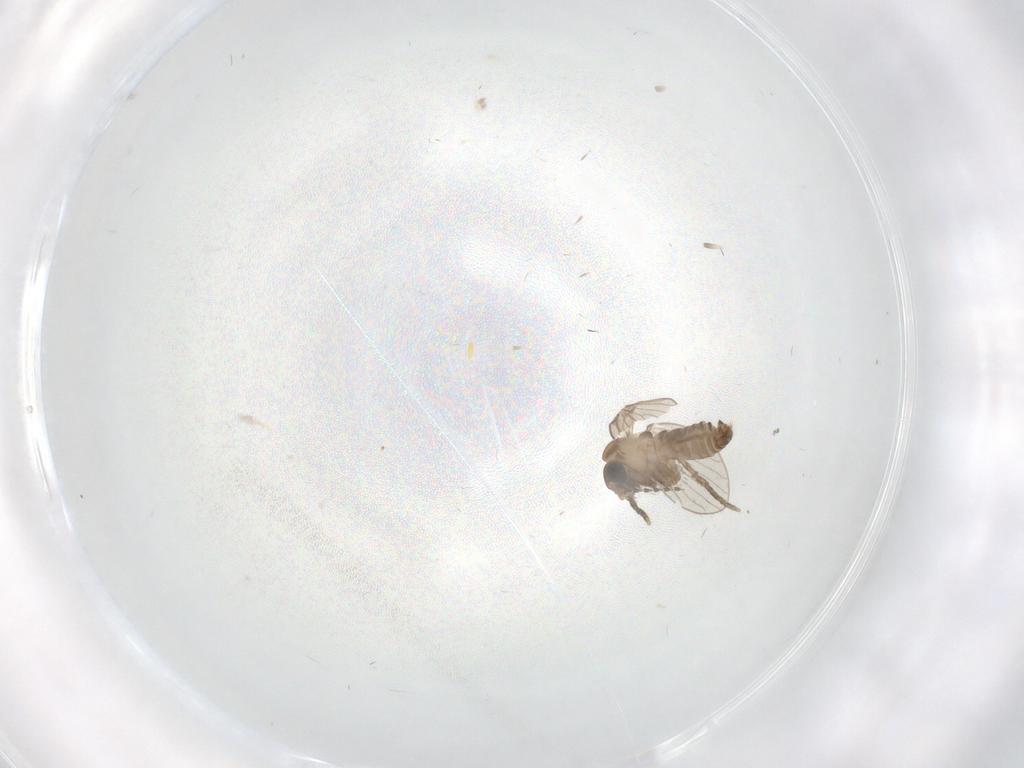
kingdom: Animalia
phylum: Arthropoda
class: Insecta
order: Diptera
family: Psychodidae
